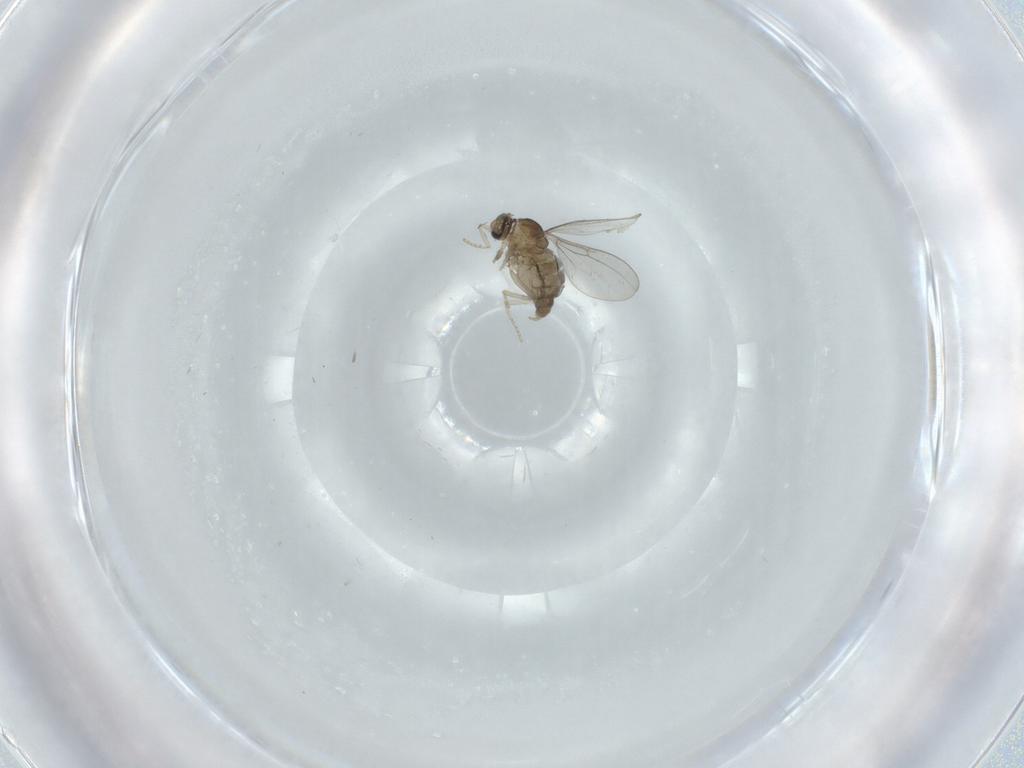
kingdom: Animalia
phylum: Arthropoda
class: Insecta
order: Diptera
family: Cecidomyiidae
